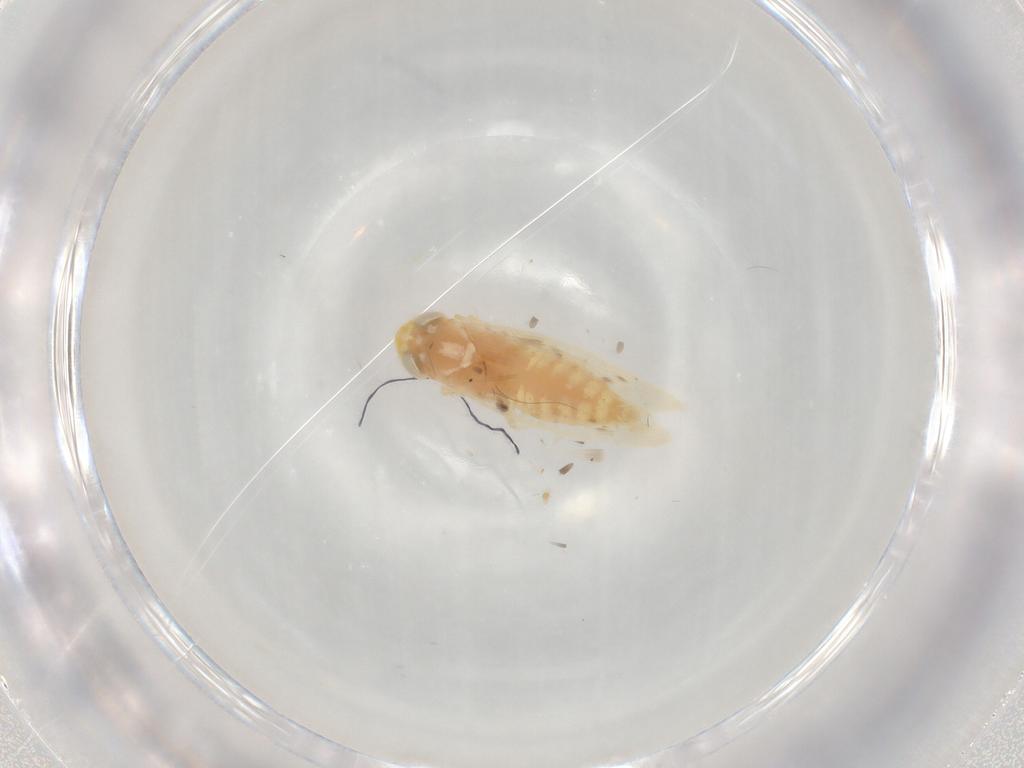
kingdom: Animalia
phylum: Arthropoda
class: Insecta
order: Hemiptera
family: Cicadellidae
